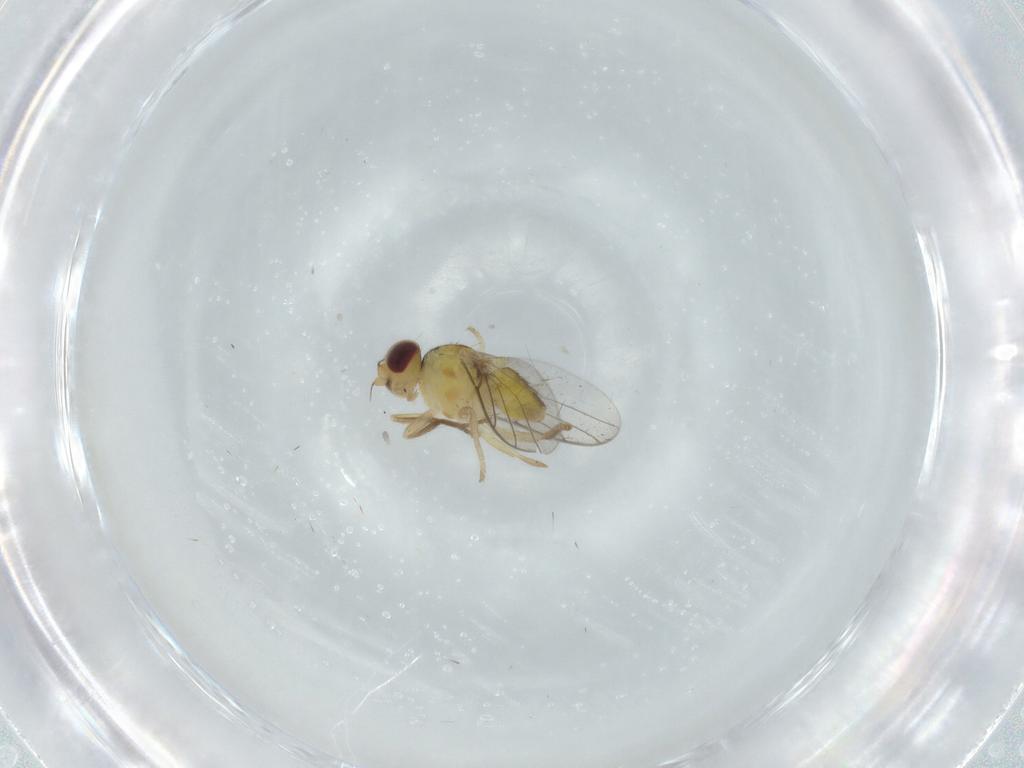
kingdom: Animalia
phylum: Arthropoda
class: Insecta
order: Diptera
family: Chloropidae
